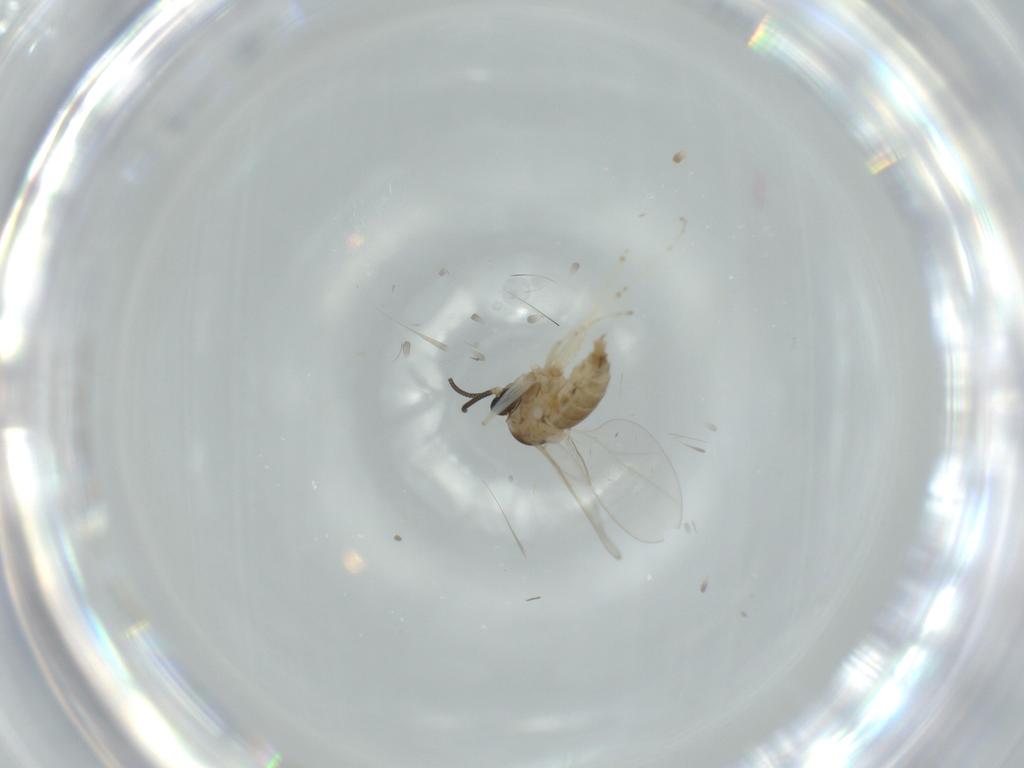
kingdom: Animalia
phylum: Arthropoda
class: Insecta
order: Diptera
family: Cecidomyiidae
